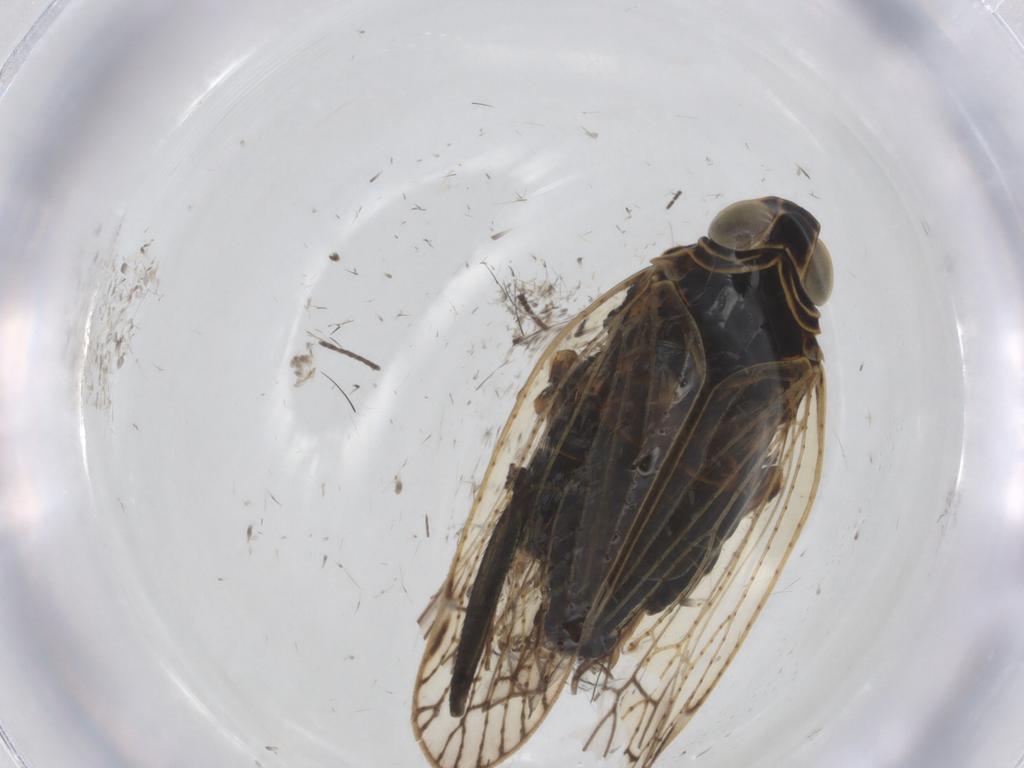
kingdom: Animalia
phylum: Arthropoda
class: Insecta
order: Hemiptera
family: Cixiidae
